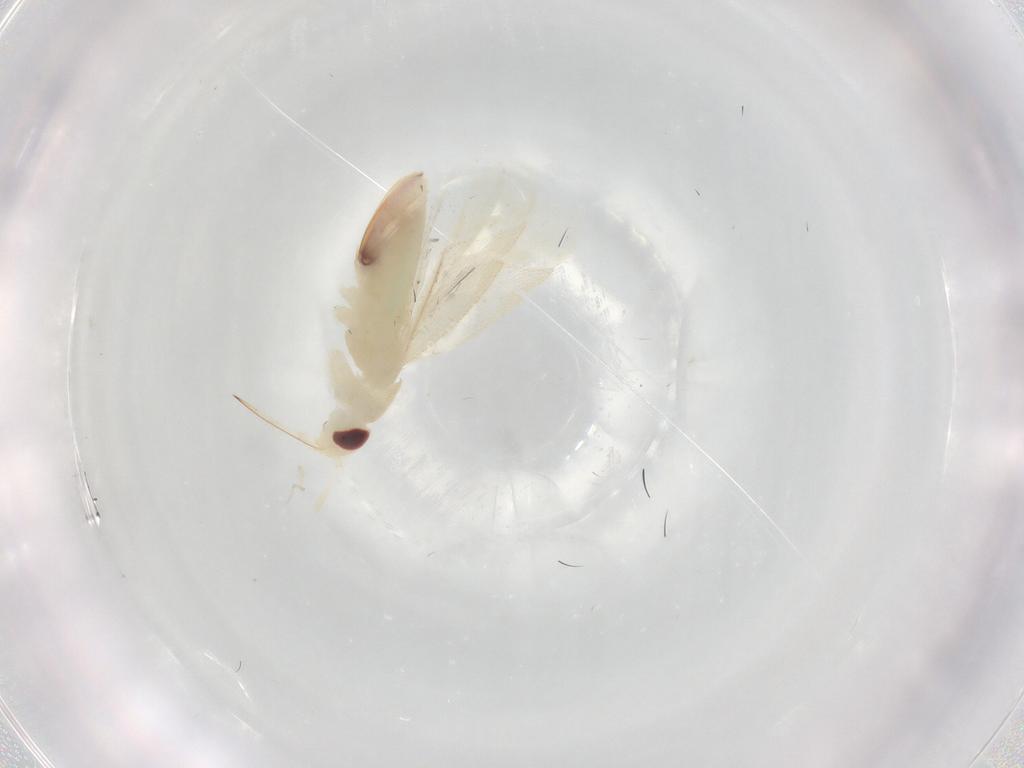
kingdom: Animalia
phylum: Arthropoda
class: Insecta
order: Hemiptera
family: Miridae
